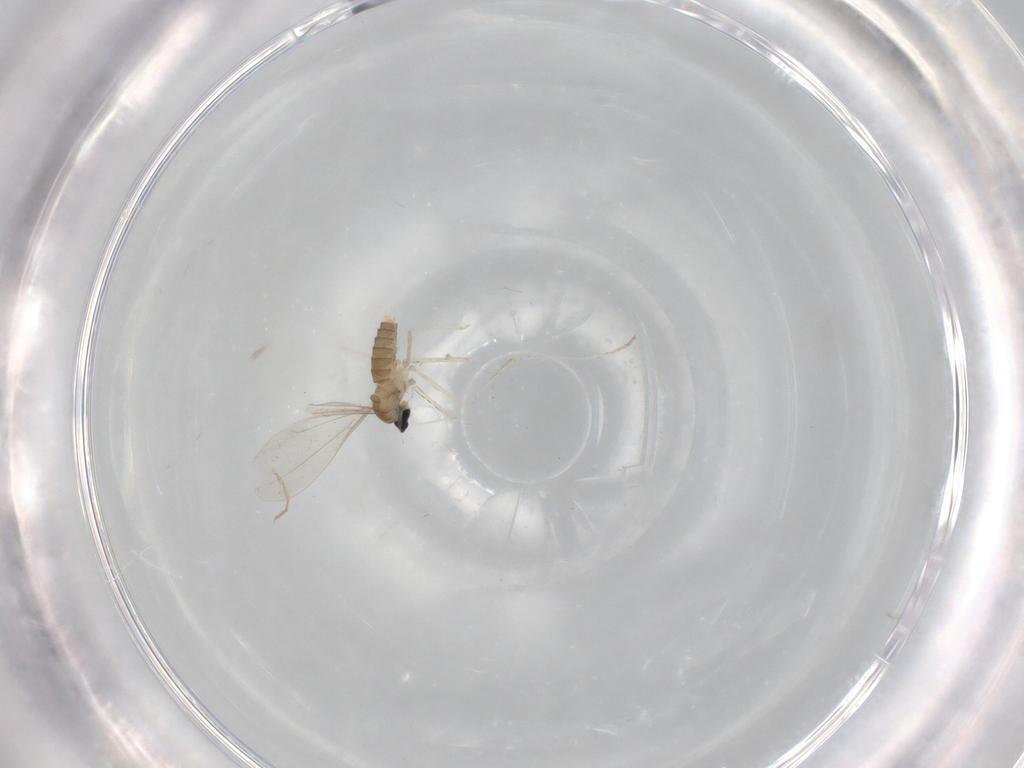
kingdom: Animalia
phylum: Arthropoda
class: Insecta
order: Diptera
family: Cecidomyiidae
